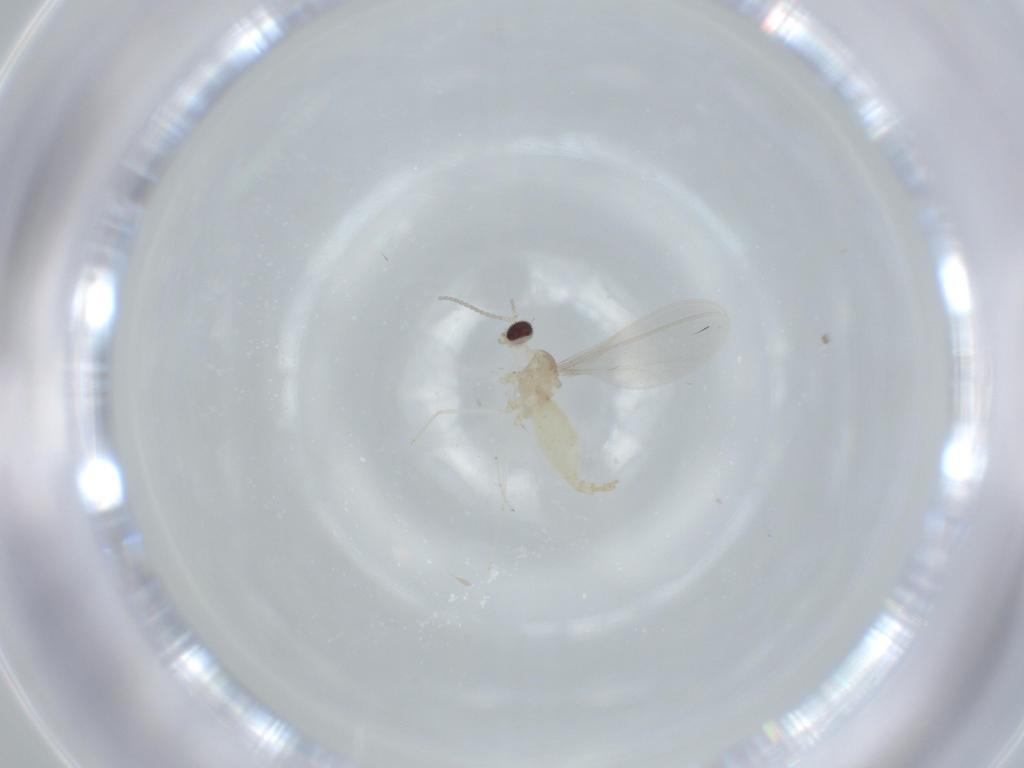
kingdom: Animalia
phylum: Arthropoda
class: Insecta
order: Diptera
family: Cecidomyiidae
